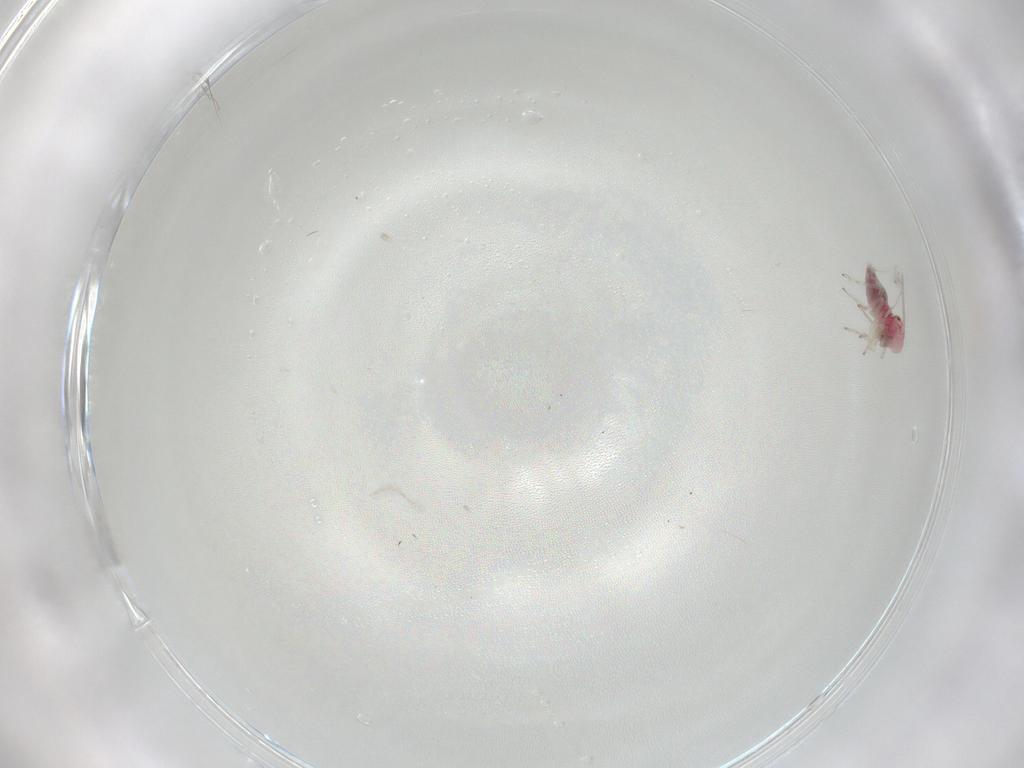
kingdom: Animalia
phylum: Arthropoda
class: Insecta
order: Psocodea
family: Caeciliusidae
